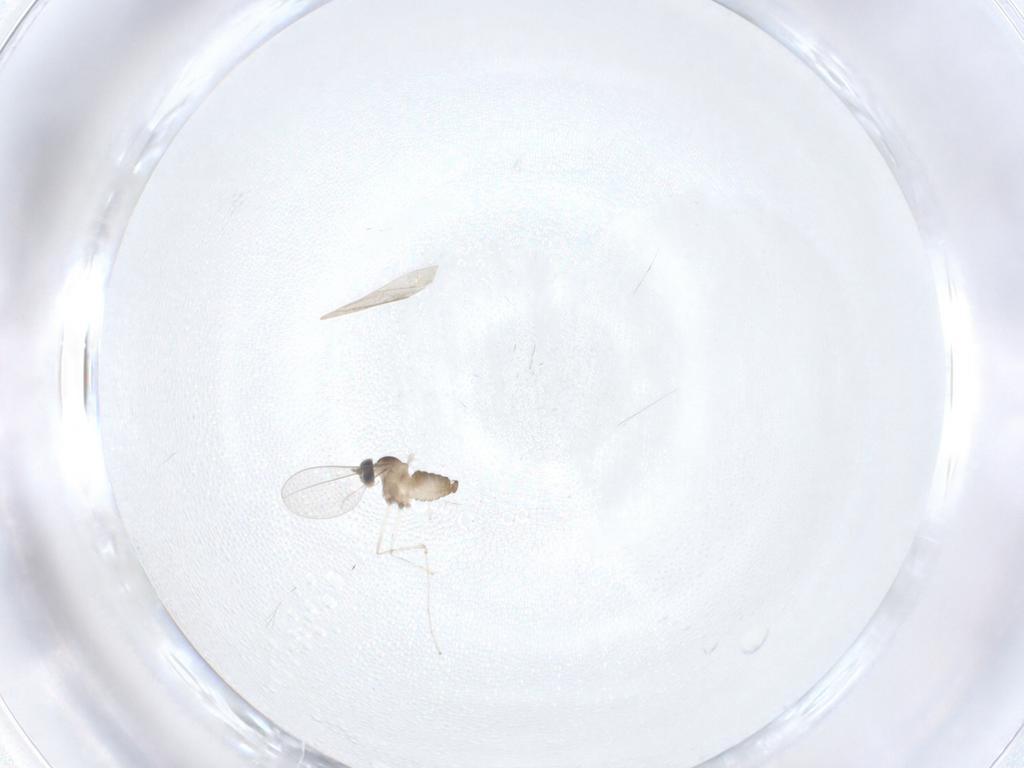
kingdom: Animalia
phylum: Arthropoda
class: Insecta
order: Diptera
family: Cecidomyiidae
